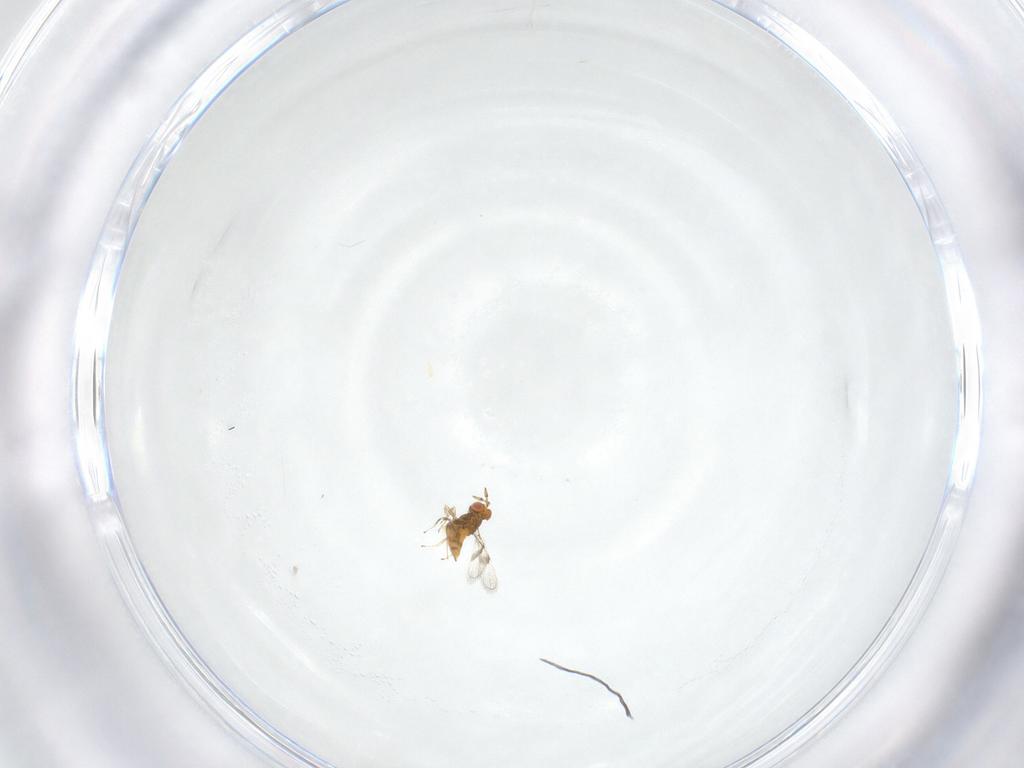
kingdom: Animalia
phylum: Arthropoda
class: Insecta
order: Hymenoptera
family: Trichogrammatidae
